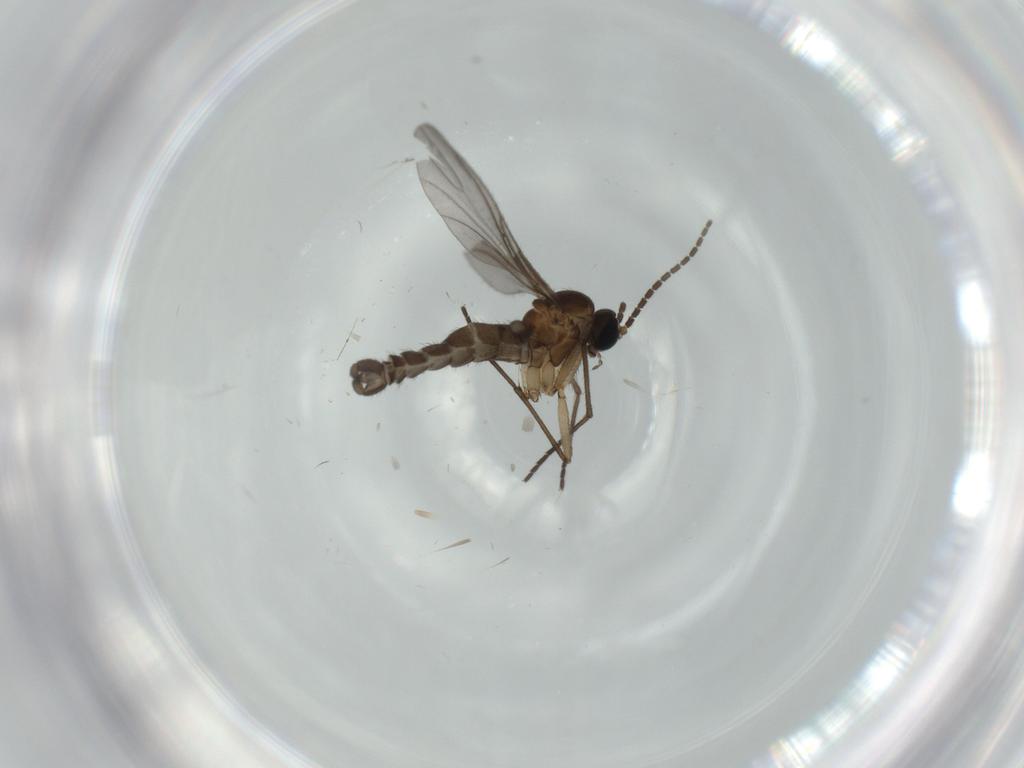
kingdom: Animalia
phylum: Arthropoda
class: Insecta
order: Diptera
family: Sciaridae
